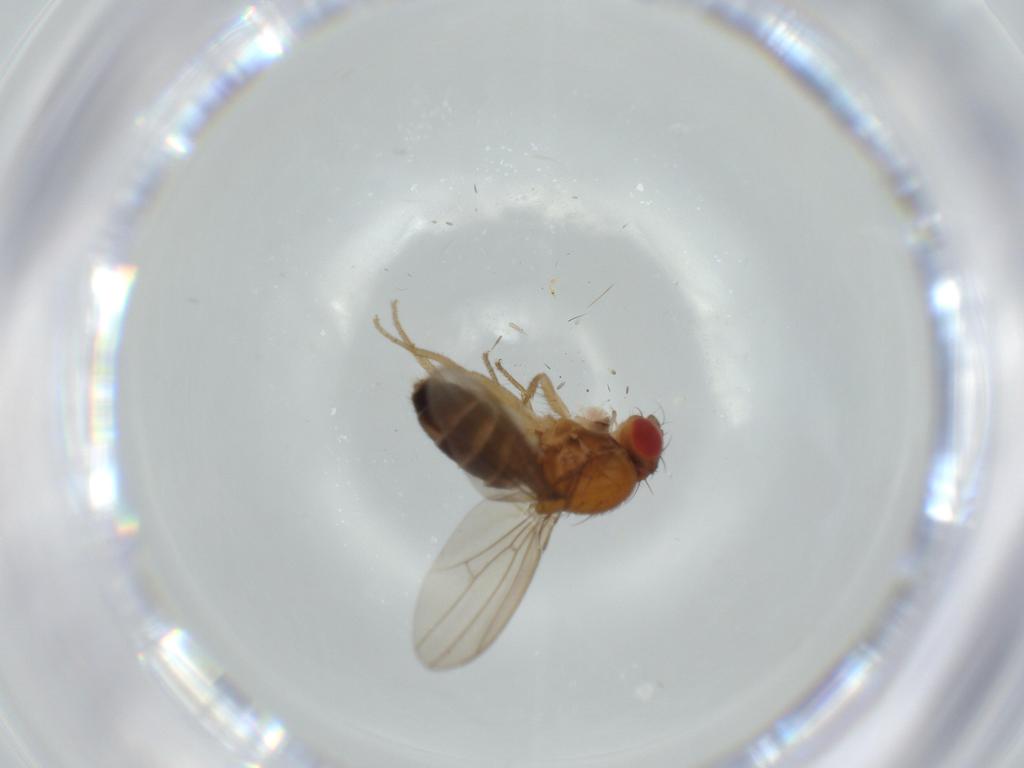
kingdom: Animalia
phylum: Arthropoda
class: Insecta
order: Diptera
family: Drosophilidae
